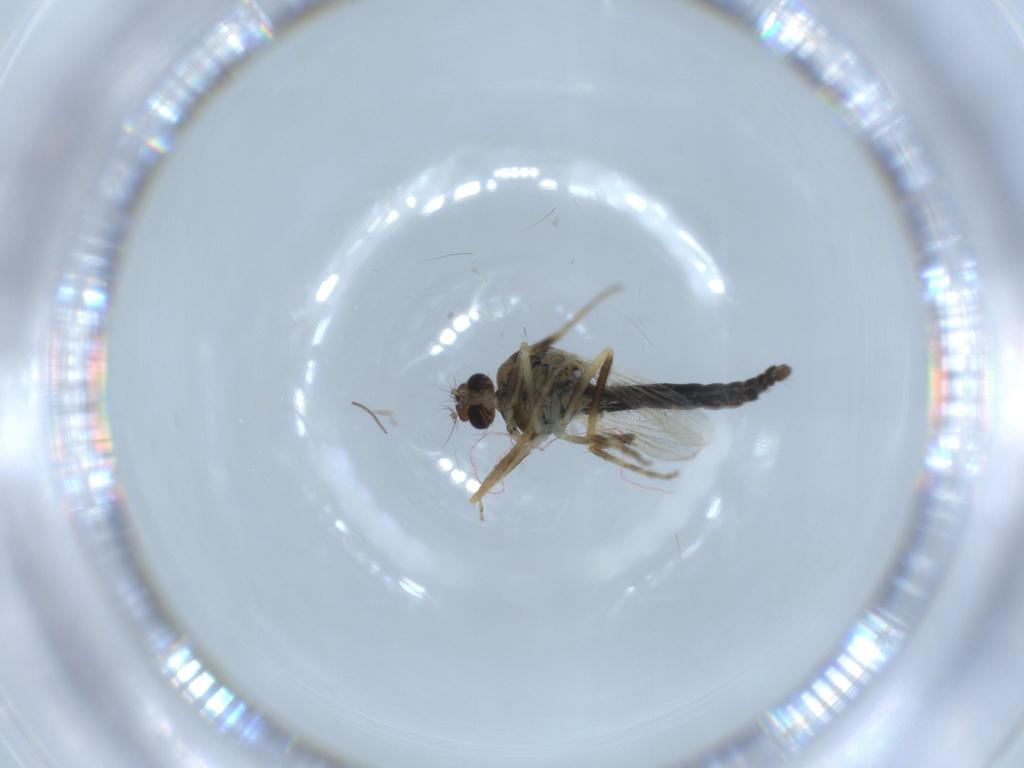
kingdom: Animalia
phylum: Arthropoda
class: Insecta
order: Diptera
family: Ceratopogonidae
